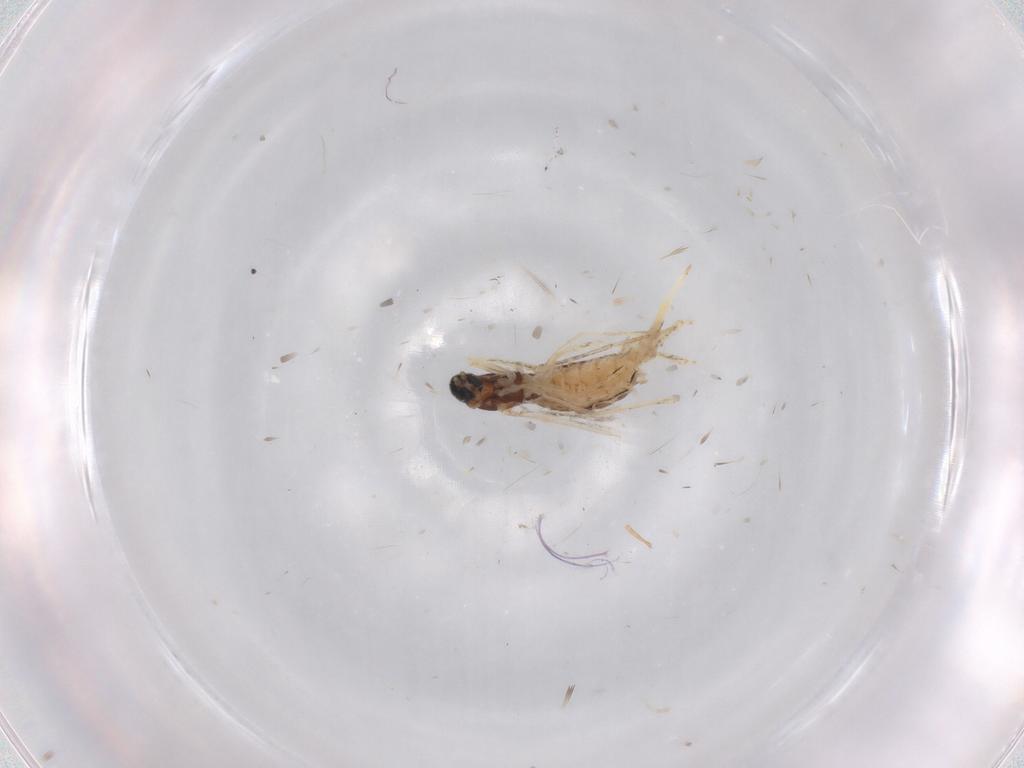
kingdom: Animalia
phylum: Arthropoda
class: Insecta
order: Diptera
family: Cecidomyiidae
